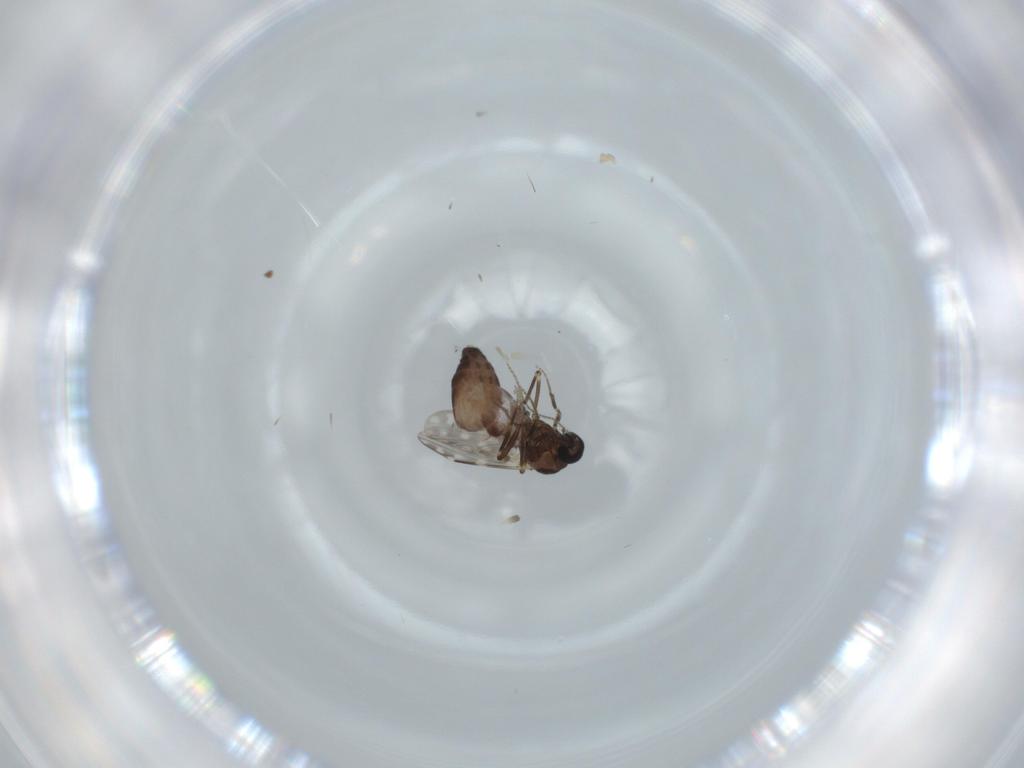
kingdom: Animalia
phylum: Arthropoda
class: Insecta
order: Diptera
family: Ceratopogonidae
